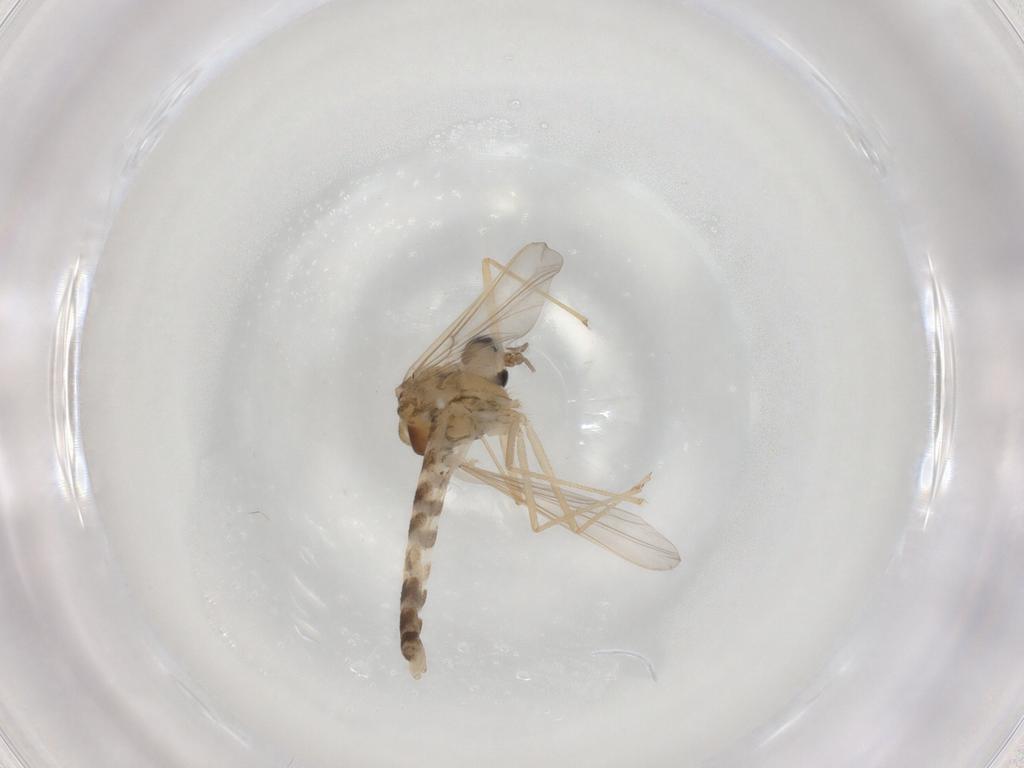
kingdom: Animalia
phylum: Arthropoda
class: Insecta
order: Diptera
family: Chironomidae
